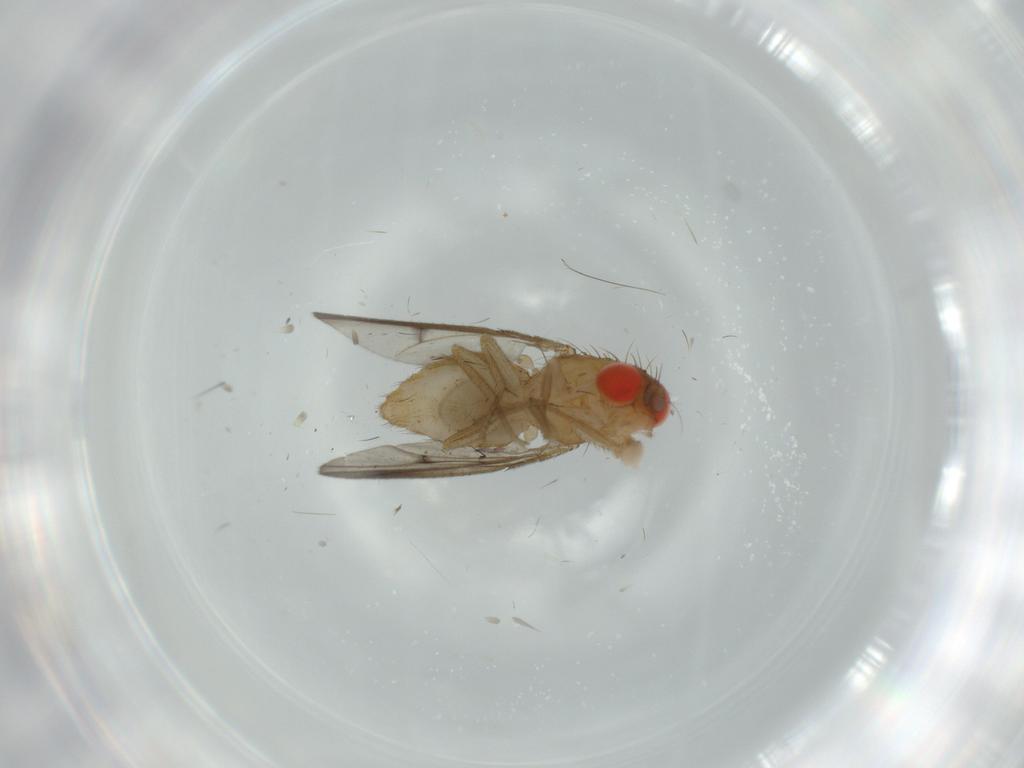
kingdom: Animalia
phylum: Arthropoda
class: Insecta
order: Diptera
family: Drosophilidae
